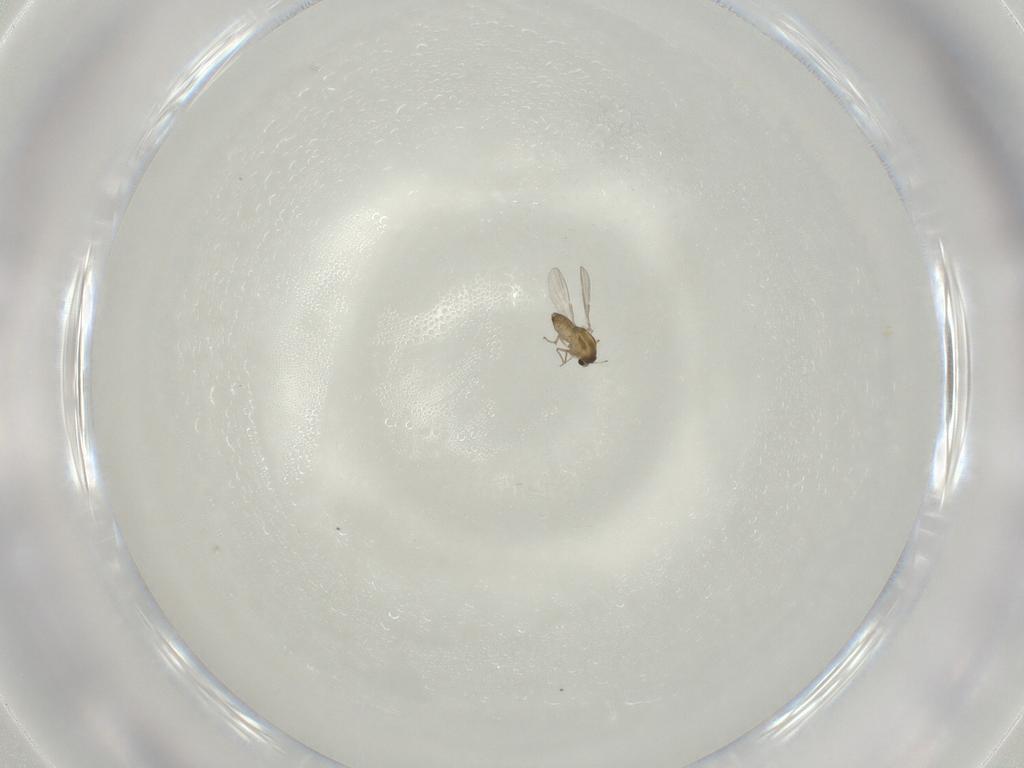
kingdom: Animalia
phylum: Arthropoda
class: Insecta
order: Diptera
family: Chironomidae
